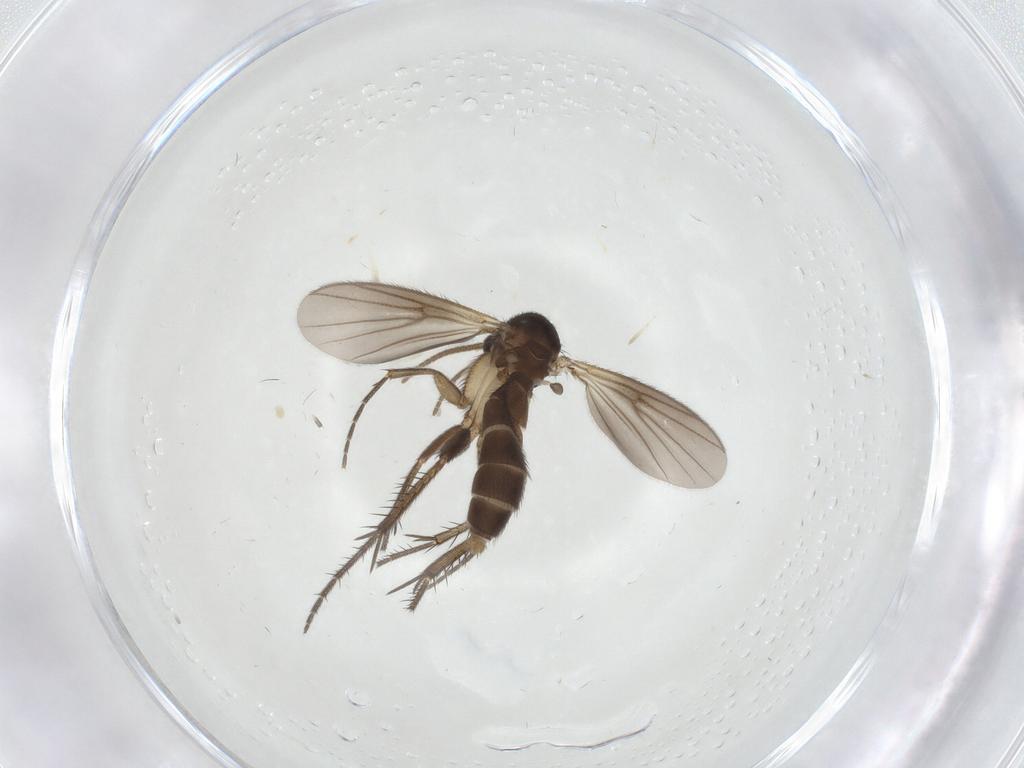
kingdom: Animalia
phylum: Arthropoda
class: Insecta
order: Diptera
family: Mycetophilidae
